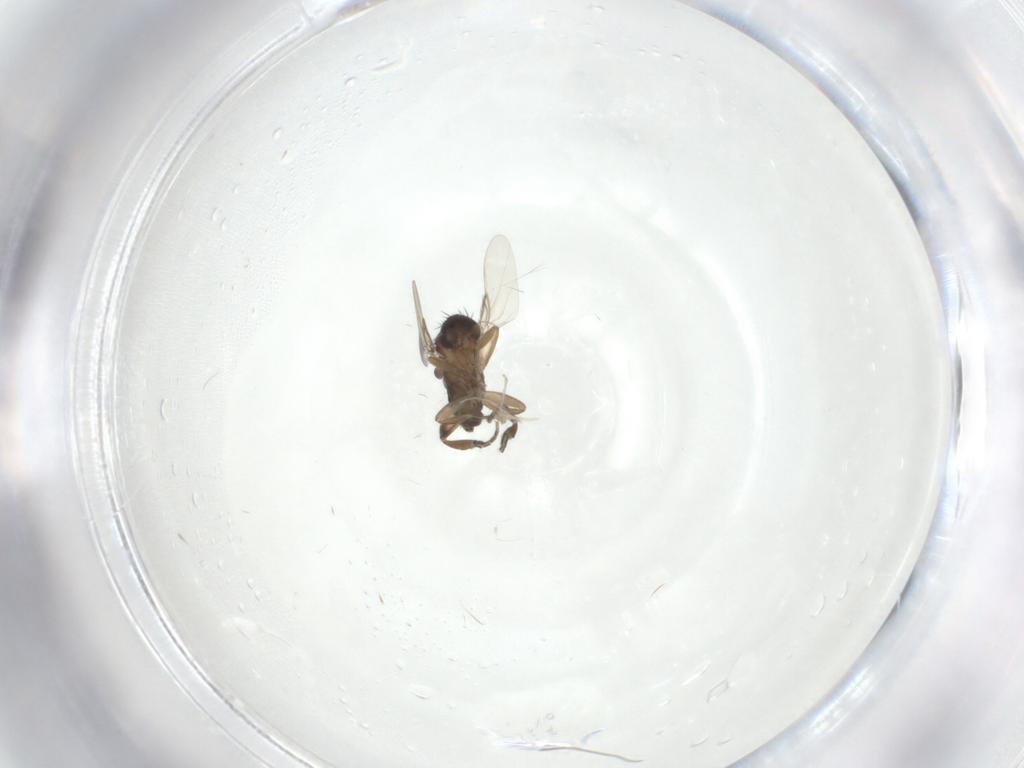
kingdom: Animalia
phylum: Arthropoda
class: Insecta
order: Diptera
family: Phoridae
